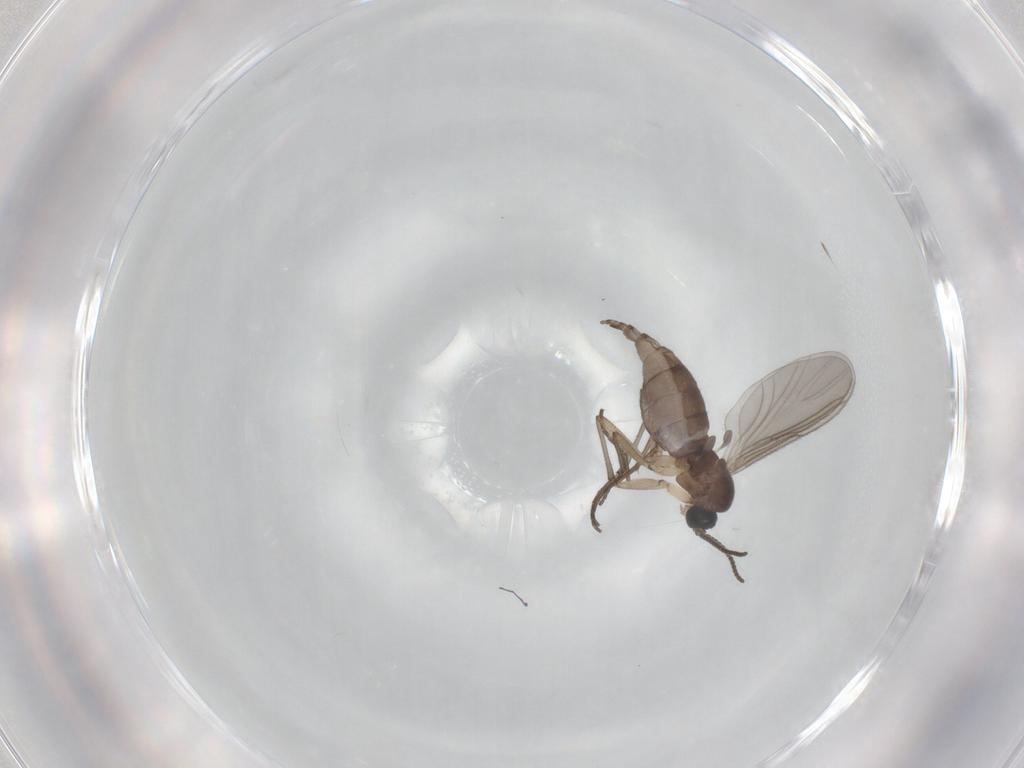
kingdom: Animalia
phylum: Arthropoda
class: Insecta
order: Diptera
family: Sciaridae
